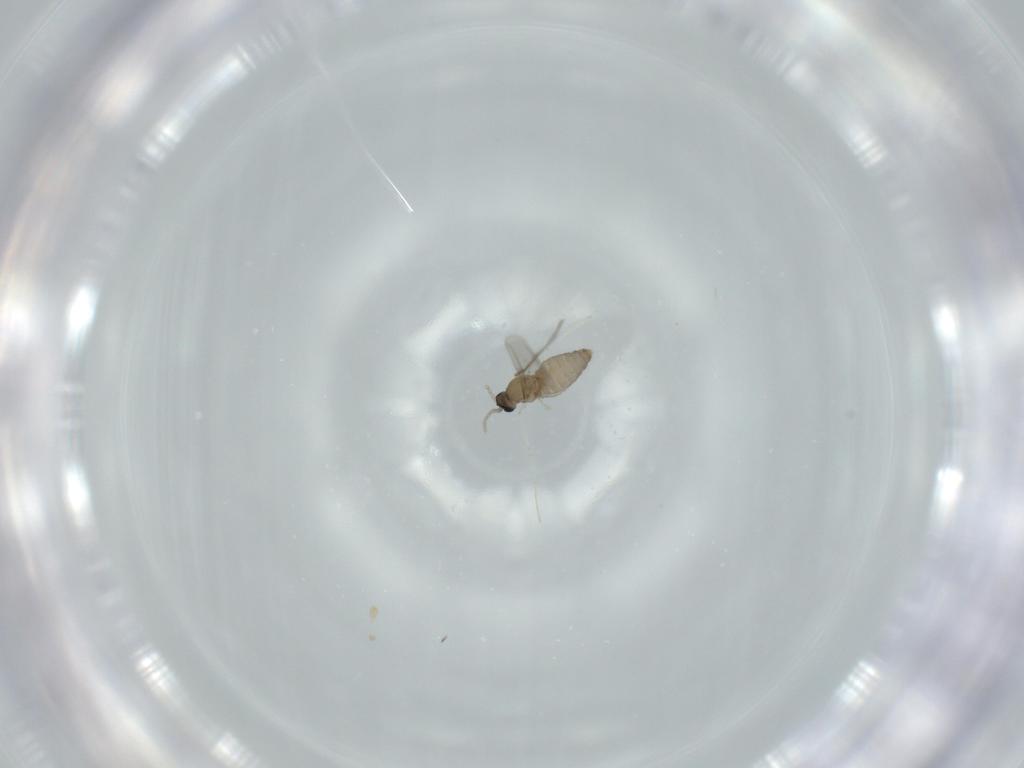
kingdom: Animalia
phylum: Arthropoda
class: Insecta
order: Diptera
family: Cecidomyiidae
